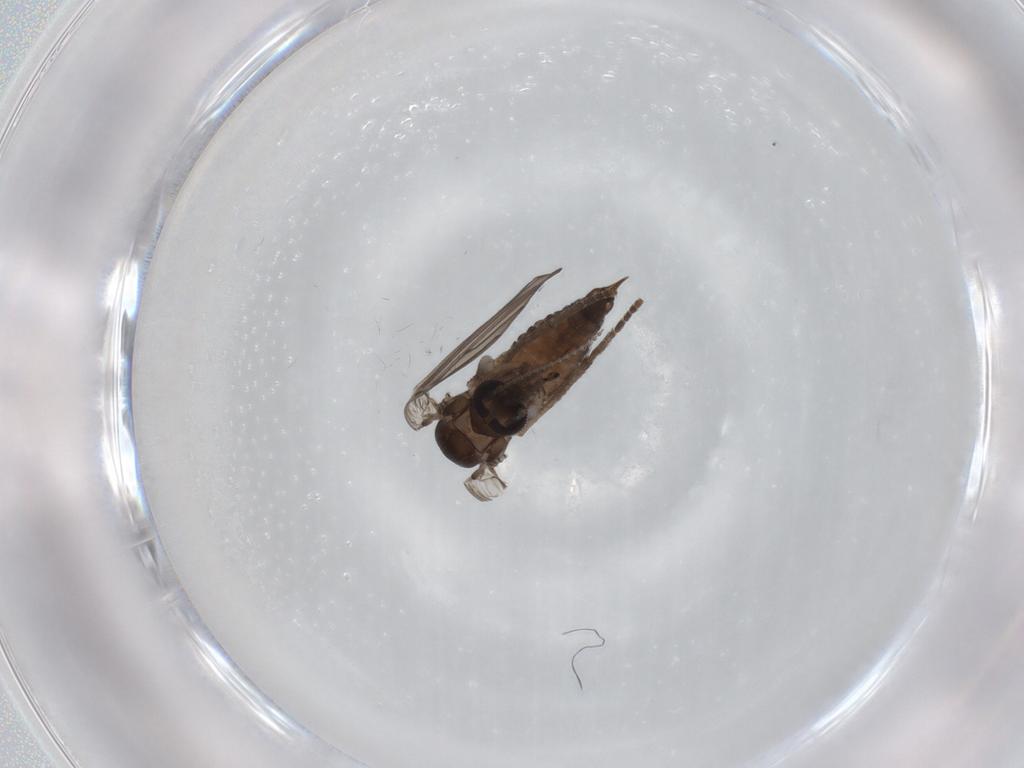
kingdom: Animalia
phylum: Arthropoda
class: Insecta
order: Diptera
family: Psychodidae
